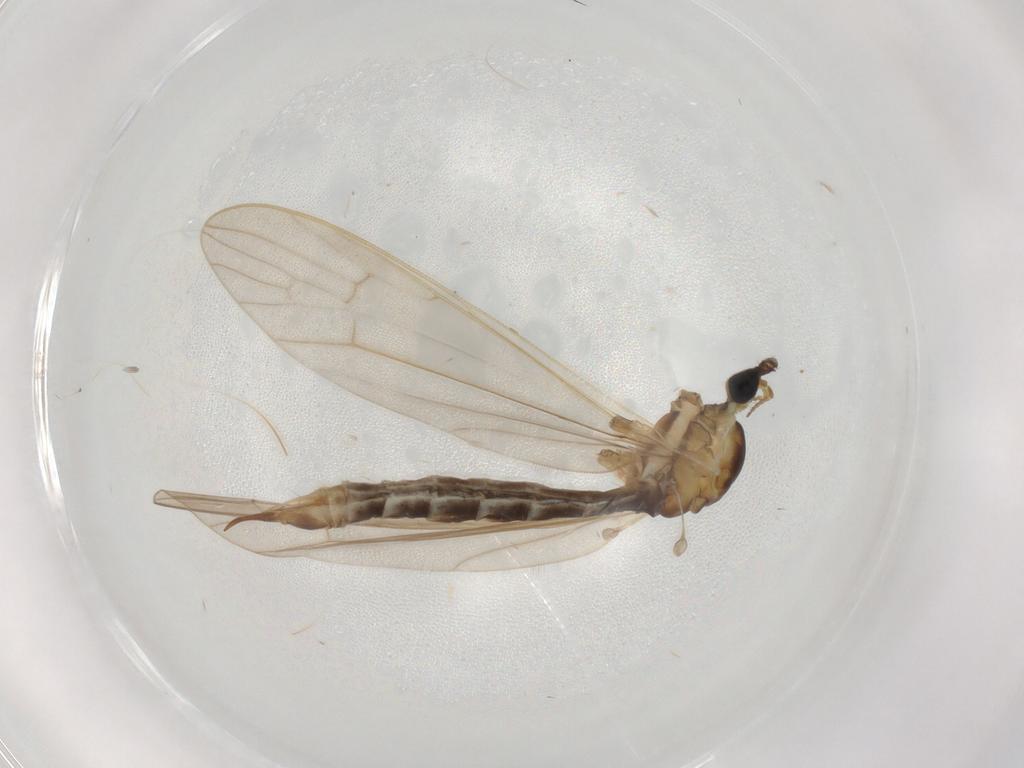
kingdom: Animalia
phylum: Arthropoda
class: Insecta
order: Diptera
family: Limoniidae
